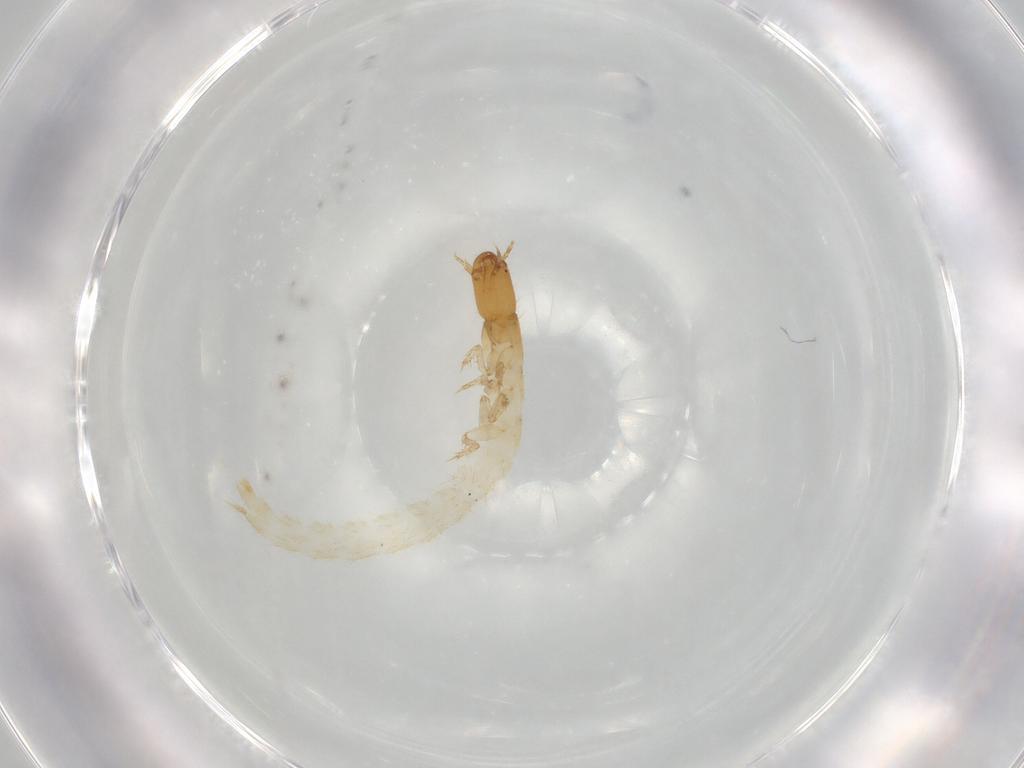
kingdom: Animalia
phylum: Arthropoda
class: Insecta
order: Coleoptera
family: Staphylinidae
